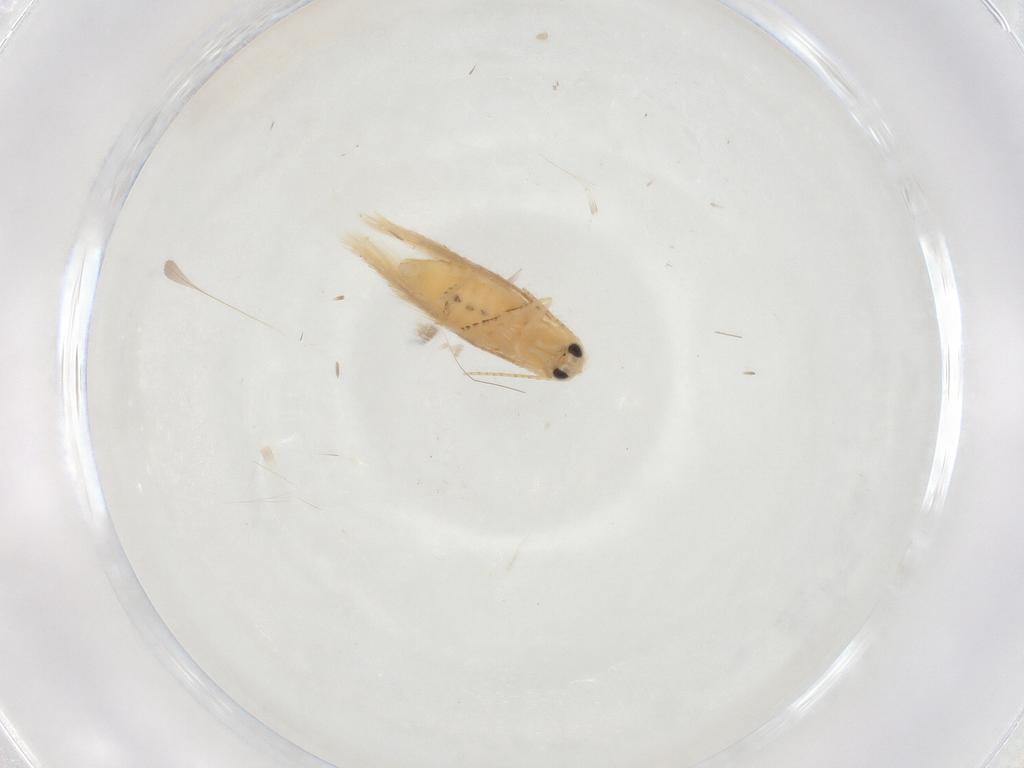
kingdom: Animalia
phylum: Arthropoda
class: Insecta
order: Lepidoptera
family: Depressariidae
